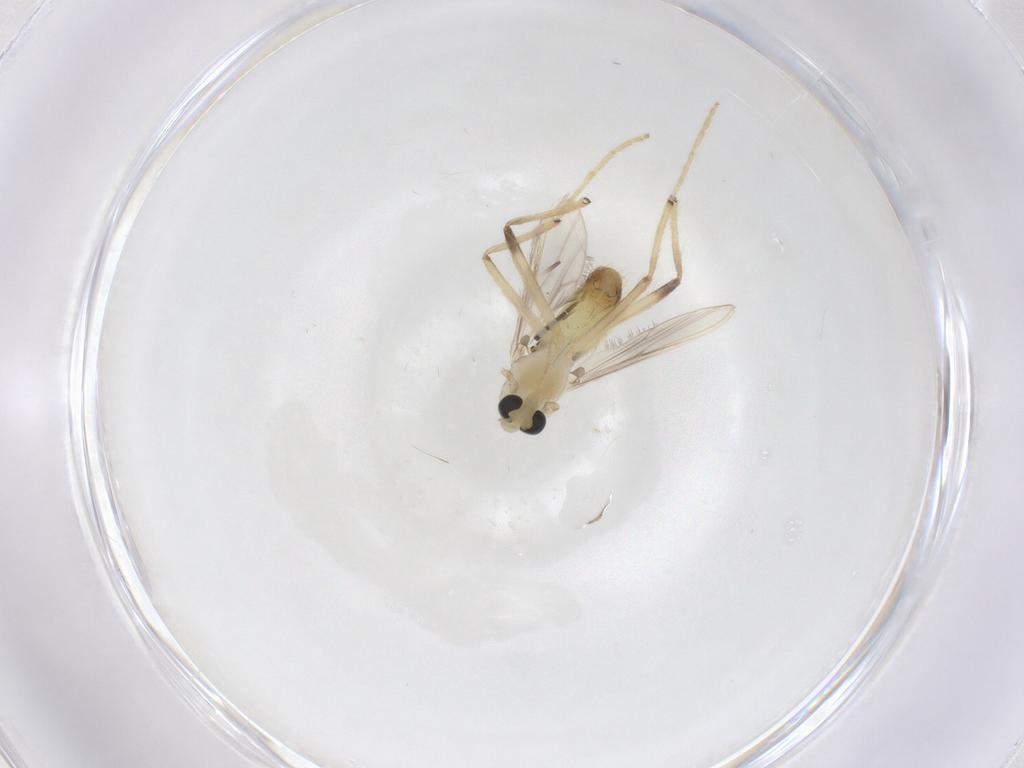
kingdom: Animalia
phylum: Arthropoda
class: Insecta
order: Diptera
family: Chironomidae
